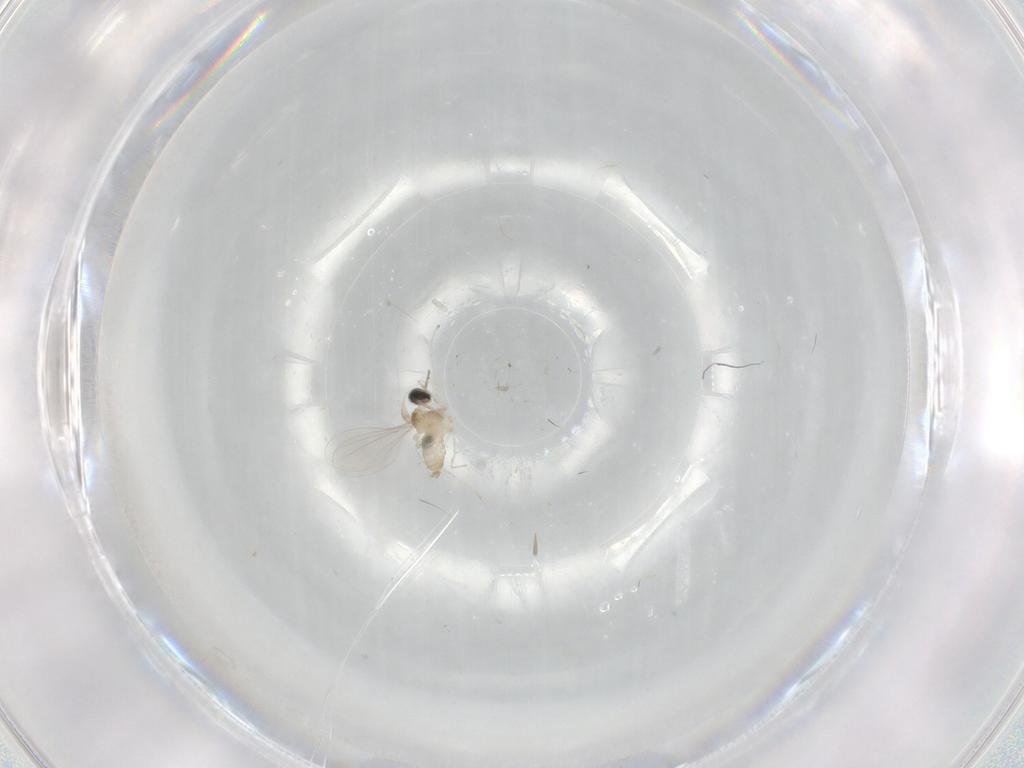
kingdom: Animalia
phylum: Arthropoda
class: Insecta
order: Diptera
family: Cecidomyiidae
